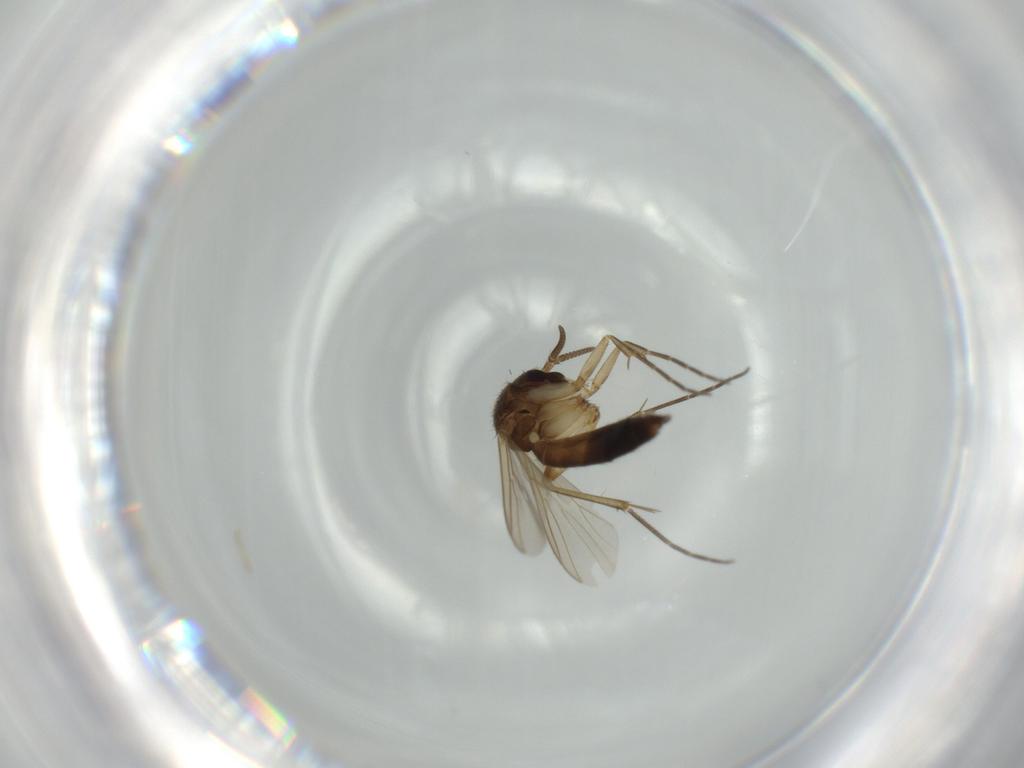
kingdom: Animalia
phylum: Arthropoda
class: Insecta
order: Diptera
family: Mycetophilidae
